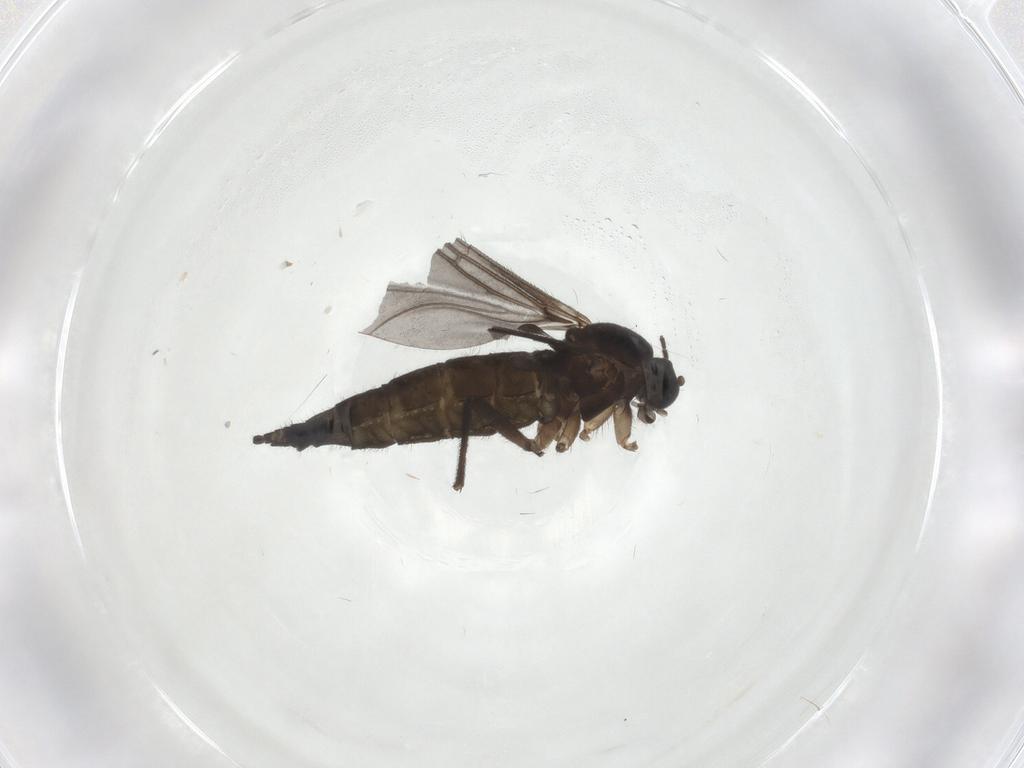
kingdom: Animalia
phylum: Arthropoda
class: Insecta
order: Diptera
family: Sciaridae
